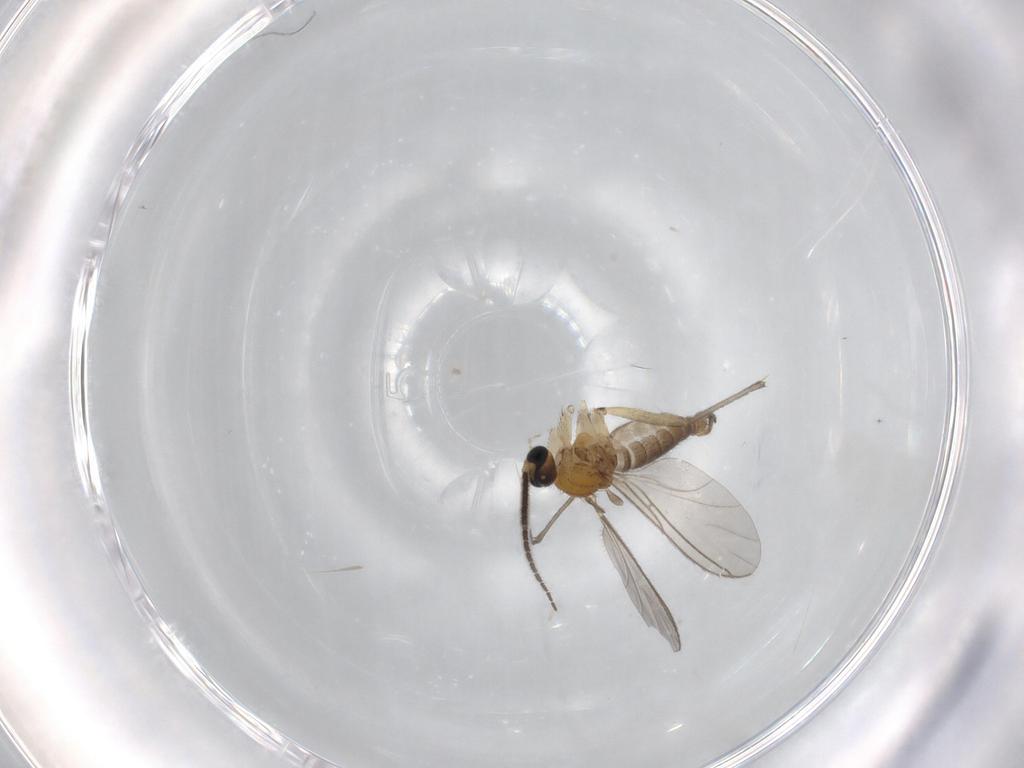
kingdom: Animalia
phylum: Arthropoda
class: Insecta
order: Diptera
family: Sciaridae
